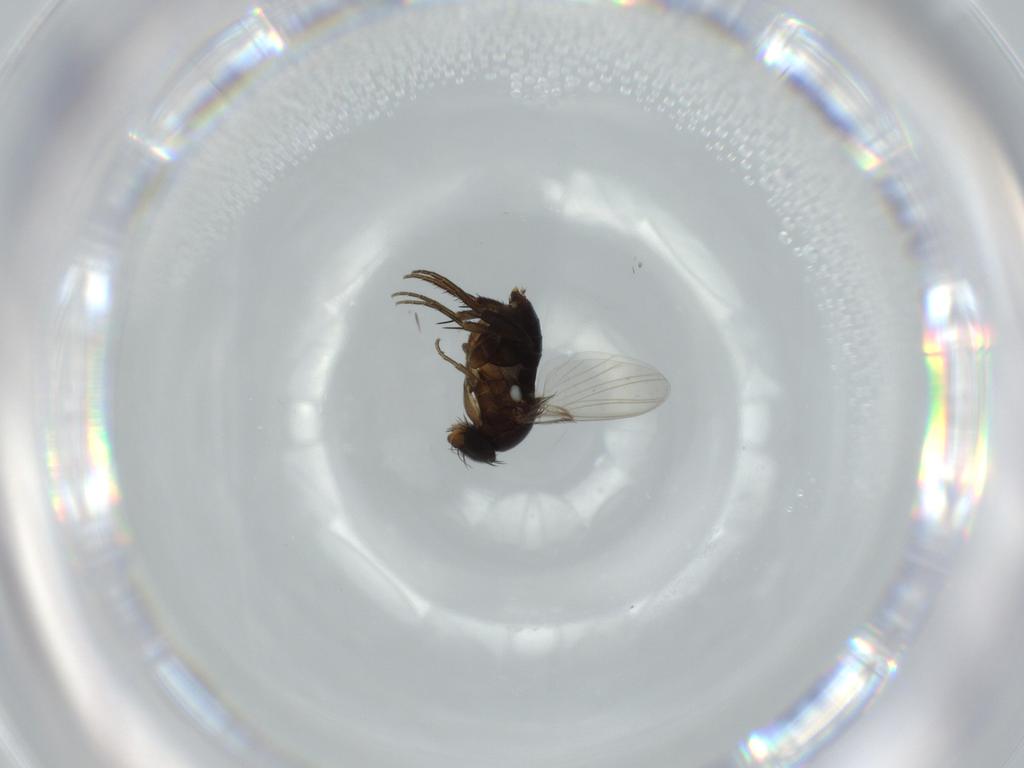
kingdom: Animalia
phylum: Arthropoda
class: Insecta
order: Diptera
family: Phoridae
